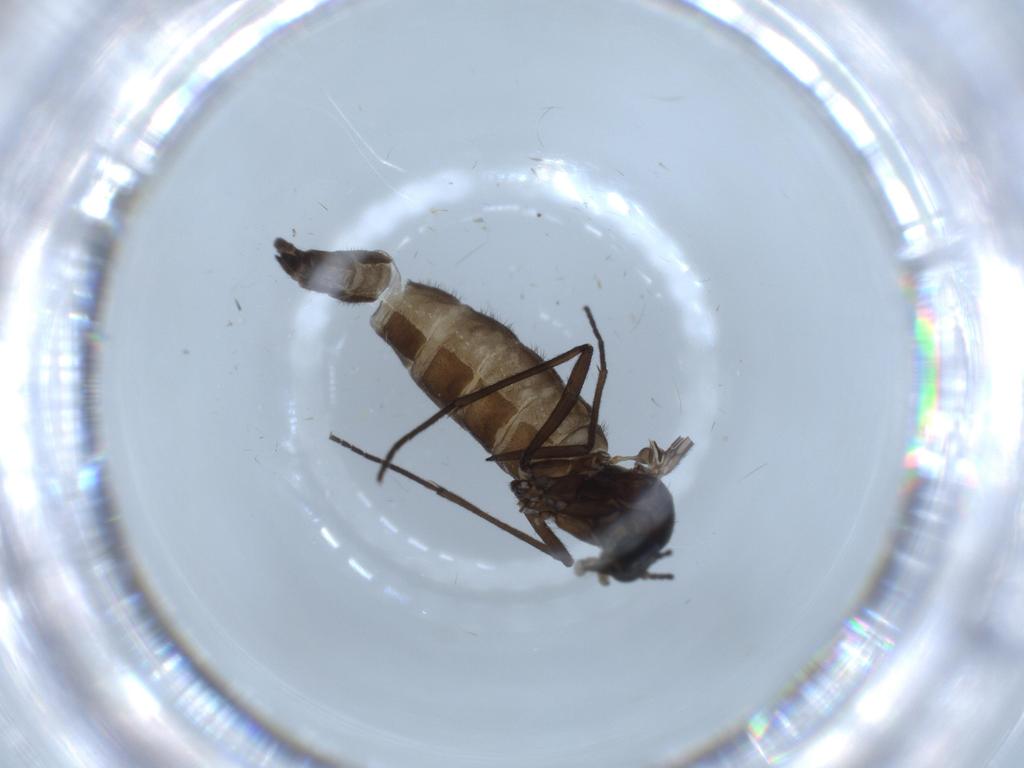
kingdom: Animalia
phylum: Arthropoda
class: Insecta
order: Diptera
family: Sciaridae
